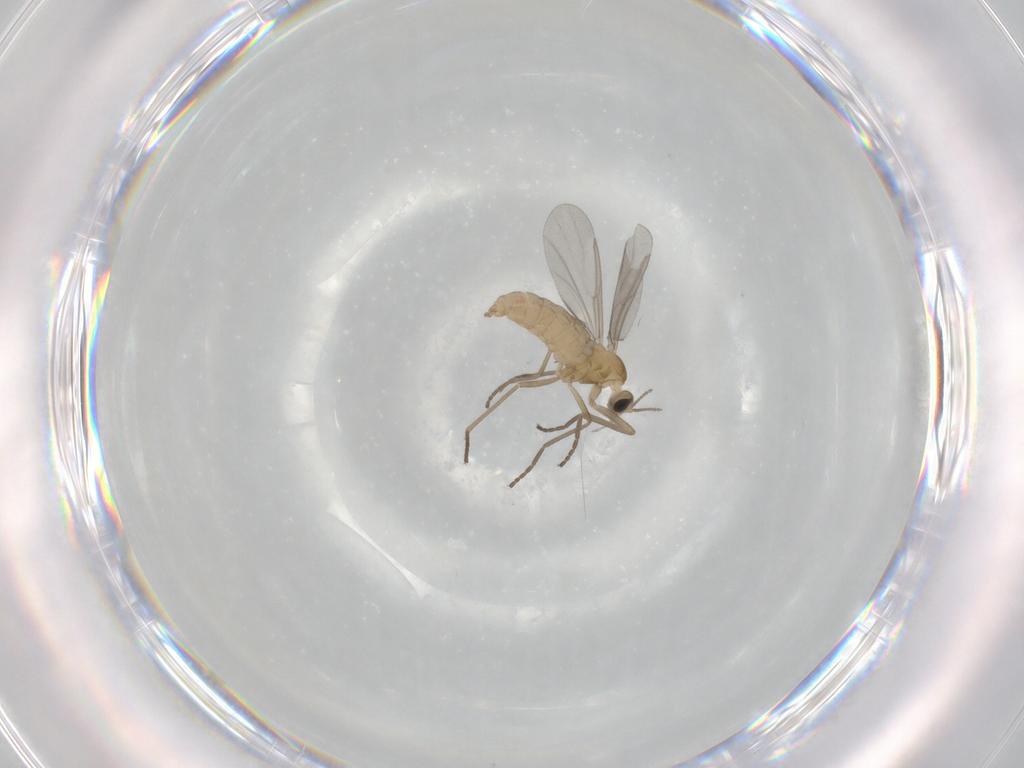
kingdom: Animalia
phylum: Arthropoda
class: Insecta
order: Diptera
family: Cecidomyiidae
